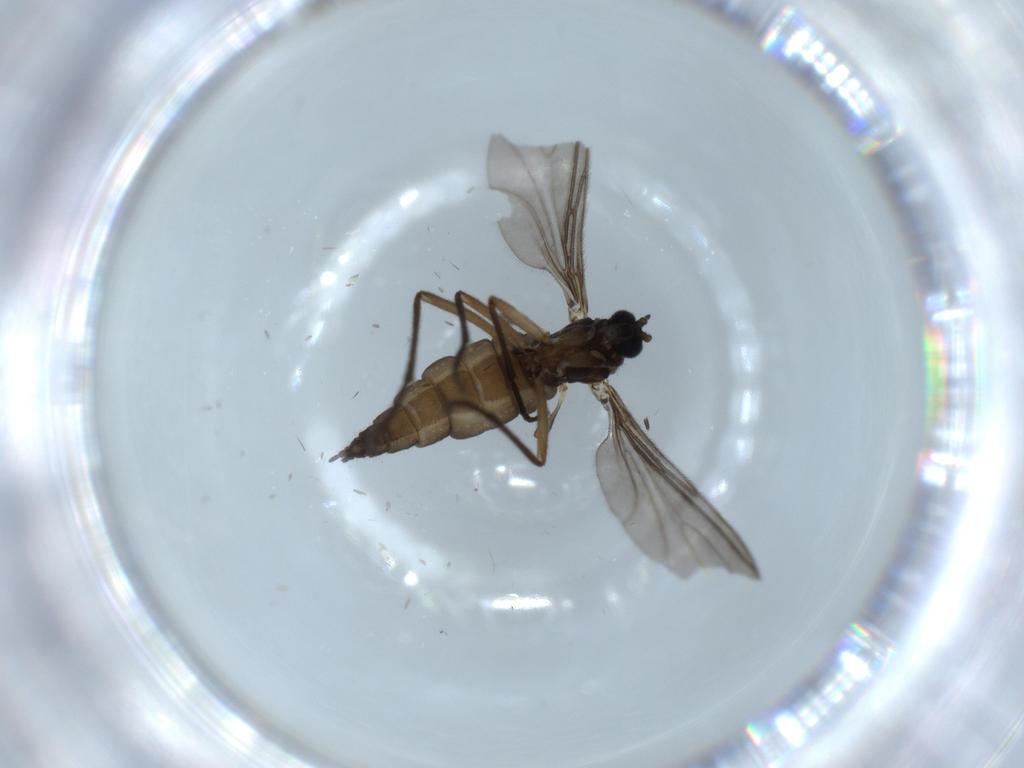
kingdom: Animalia
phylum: Arthropoda
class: Insecta
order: Diptera
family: Sciaridae
